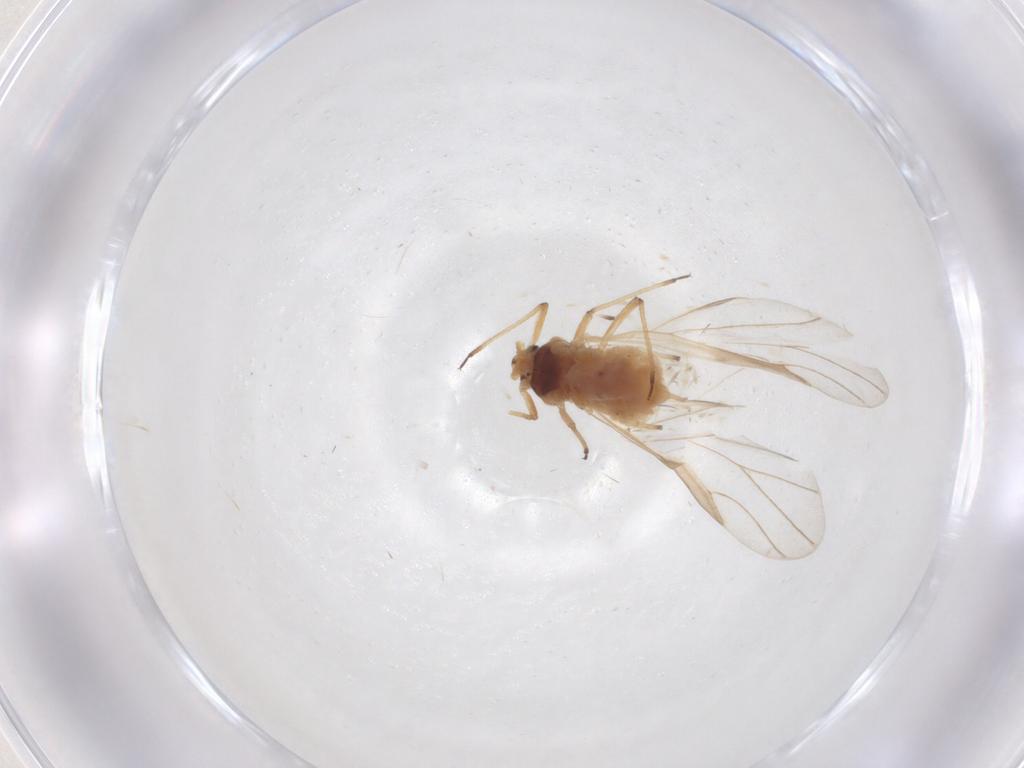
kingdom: Animalia
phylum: Arthropoda
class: Insecta
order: Hemiptera
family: Aphididae
